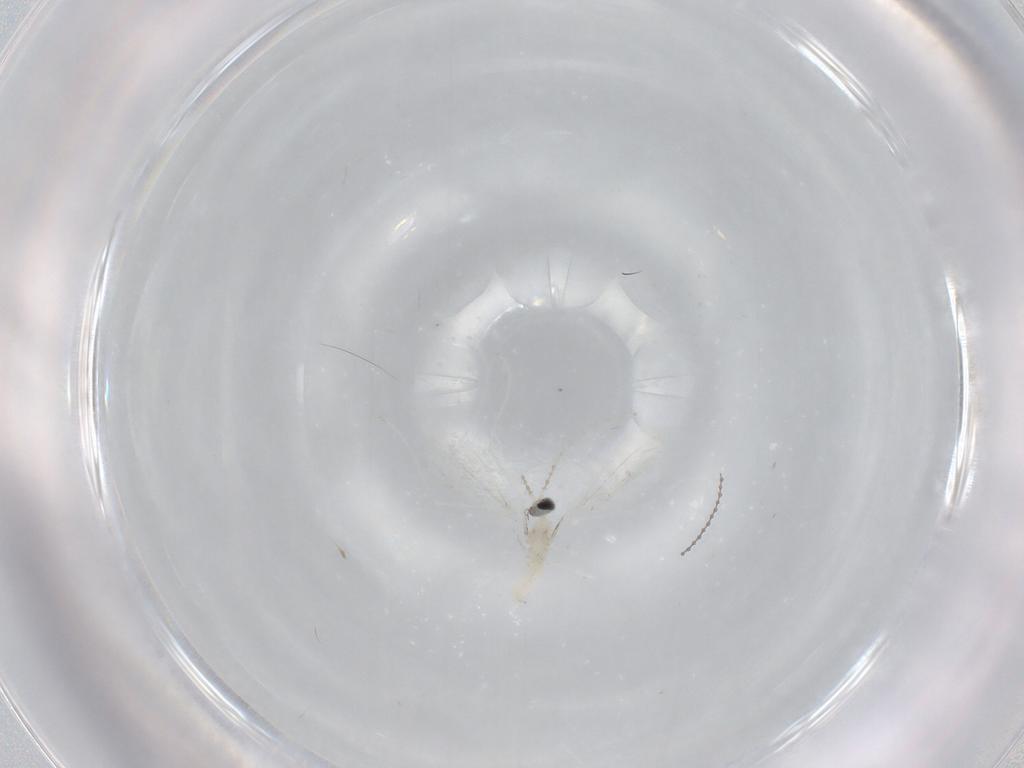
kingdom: Animalia
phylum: Arthropoda
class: Insecta
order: Diptera
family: Cecidomyiidae
